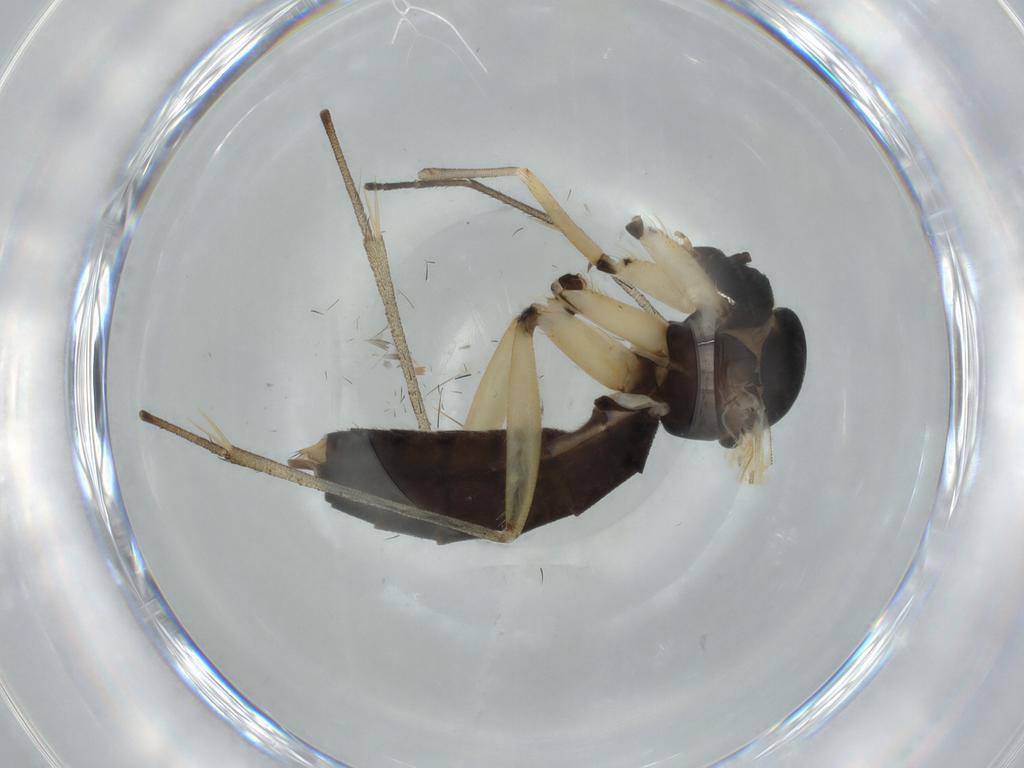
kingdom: Animalia
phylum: Arthropoda
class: Insecta
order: Diptera
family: Mycetophilidae
